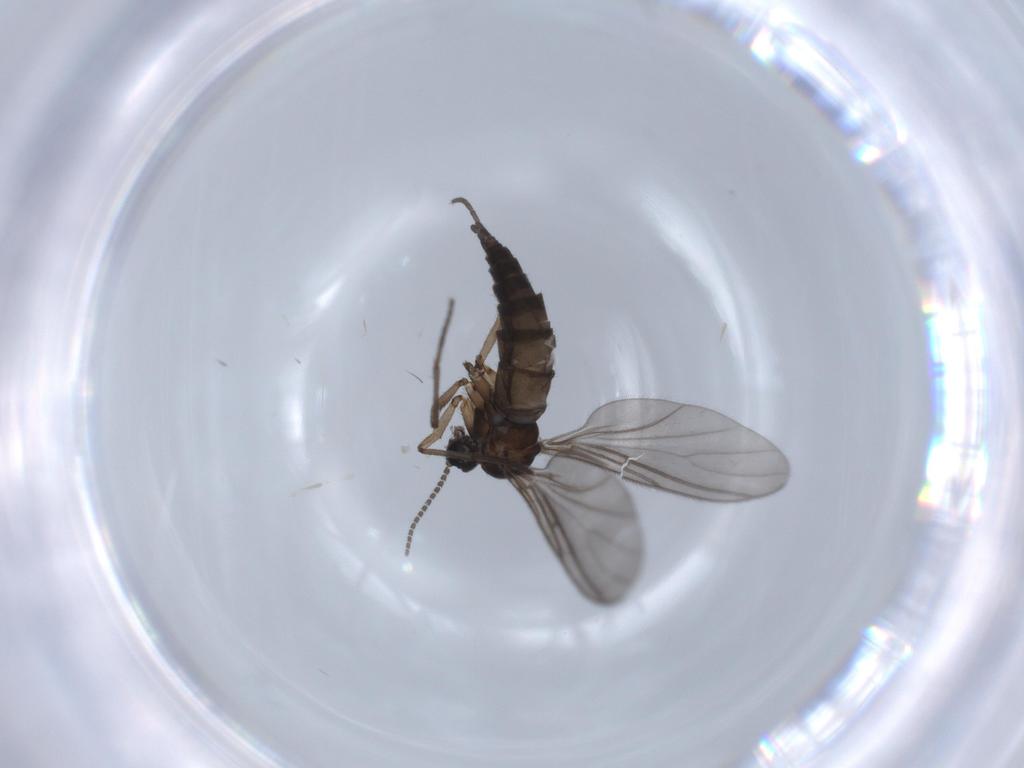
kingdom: Animalia
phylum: Arthropoda
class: Insecta
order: Diptera
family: Sciaridae
